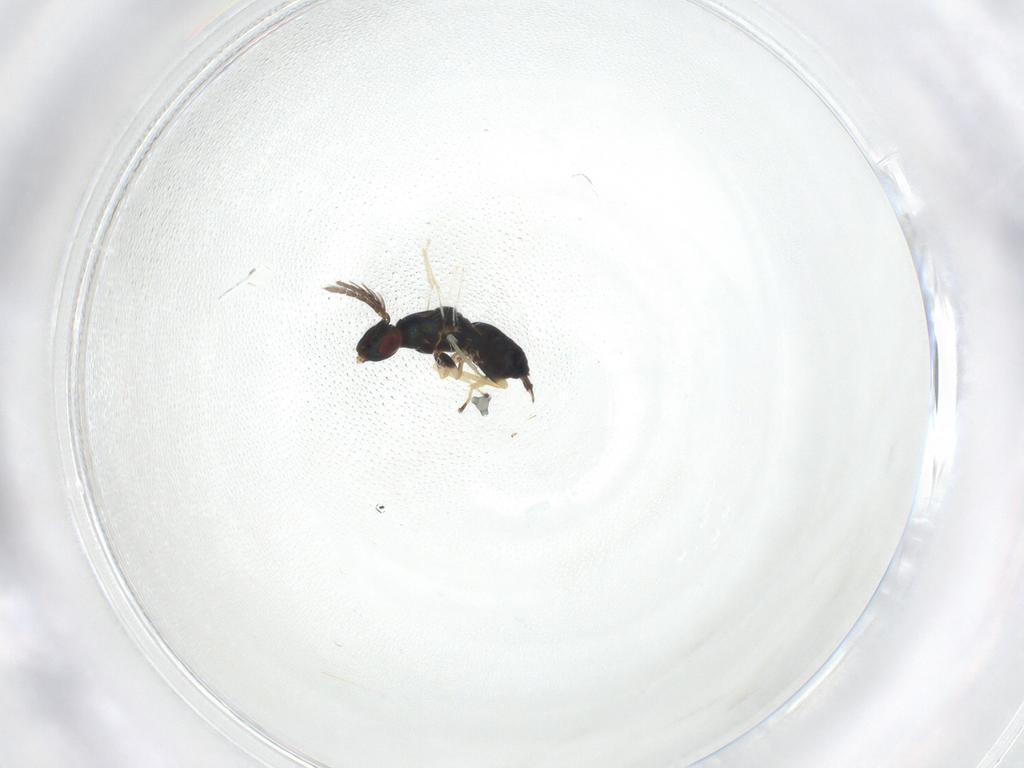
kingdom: Animalia
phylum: Arthropoda
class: Insecta
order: Hymenoptera
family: Eulophidae
